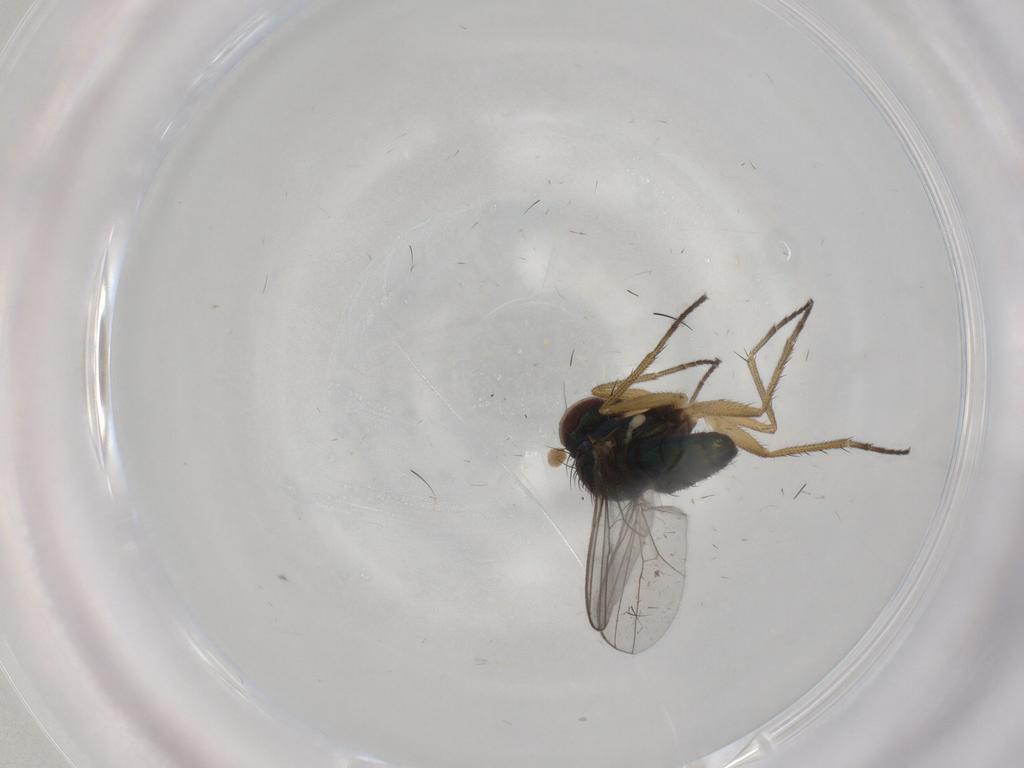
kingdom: Animalia
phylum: Arthropoda
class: Insecta
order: Diptera
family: Dolichopodidae
